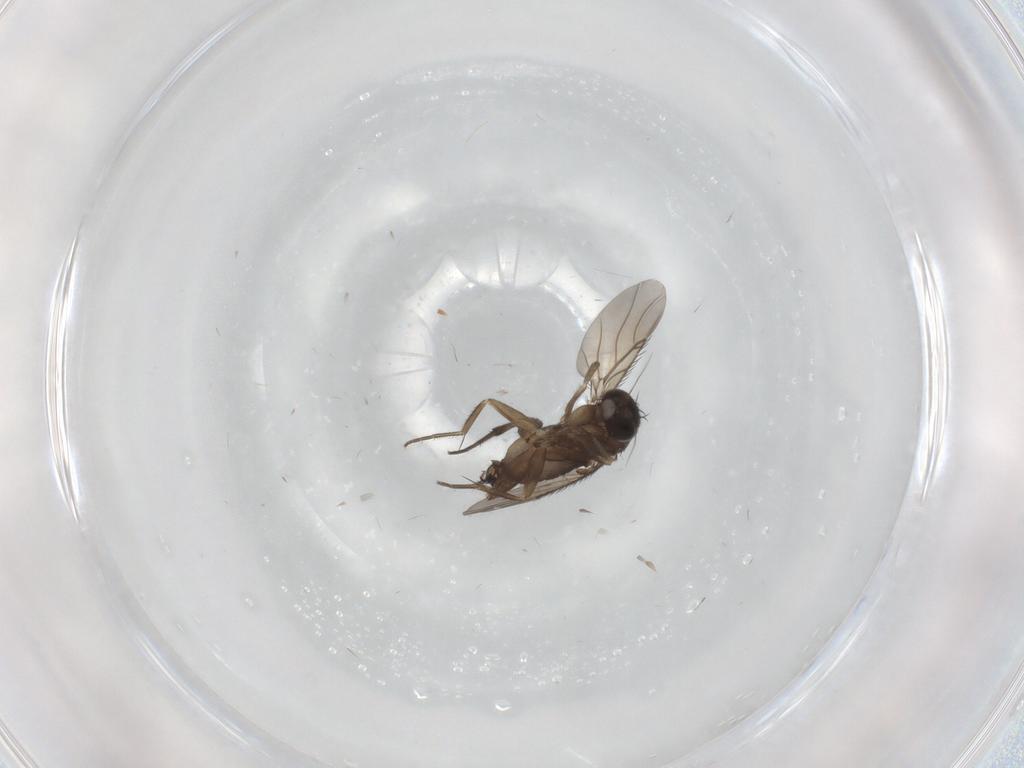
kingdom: Animalia
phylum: Arthropoda
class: Insecta
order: Diptera
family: Phoridae
